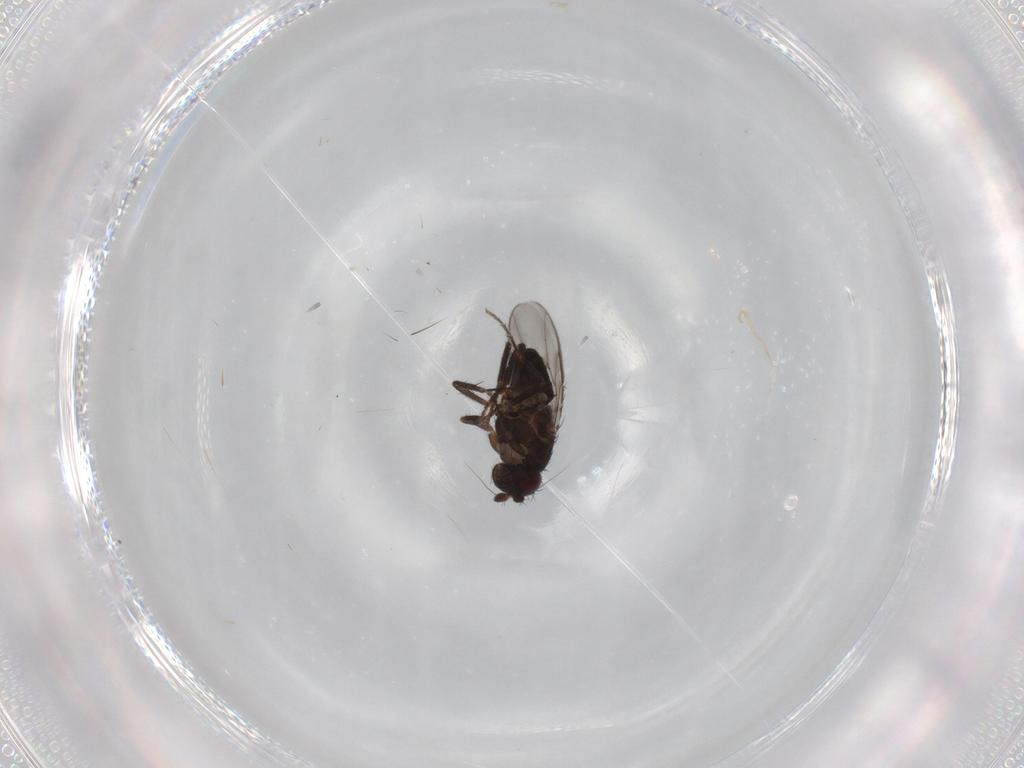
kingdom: Animalia
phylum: Arthropoda
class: Insecta
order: Diptera
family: Sphaeroceridae
